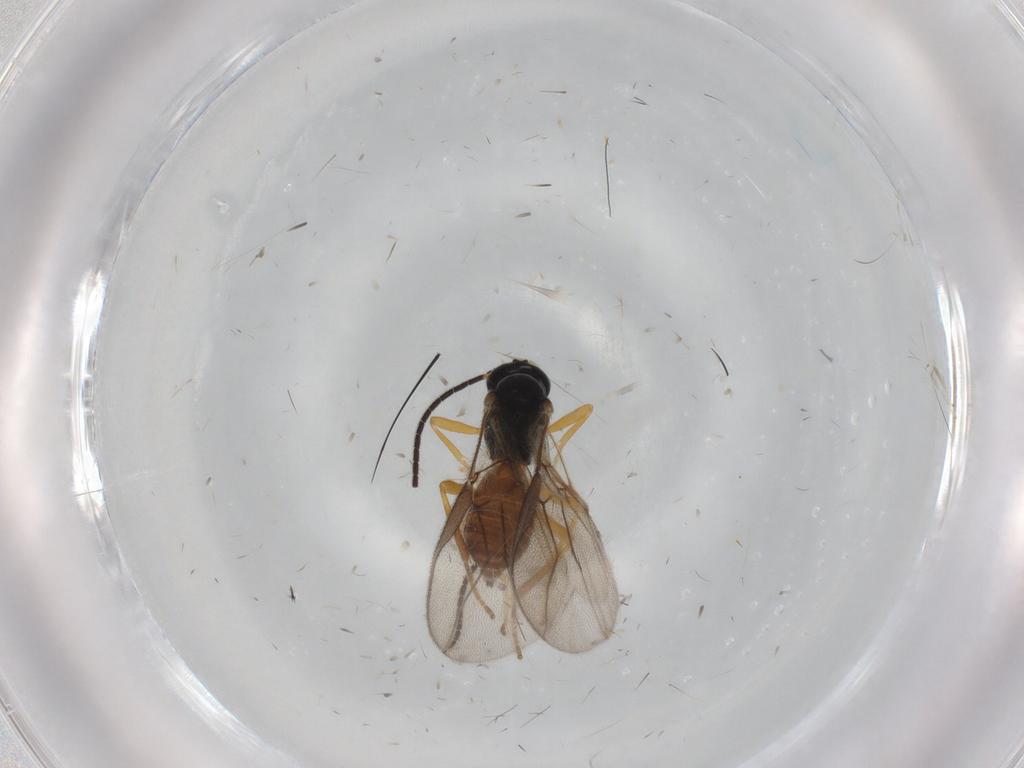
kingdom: Animalia
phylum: Arthropoda
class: Insecta
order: Hymenoptera
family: Braconidae
